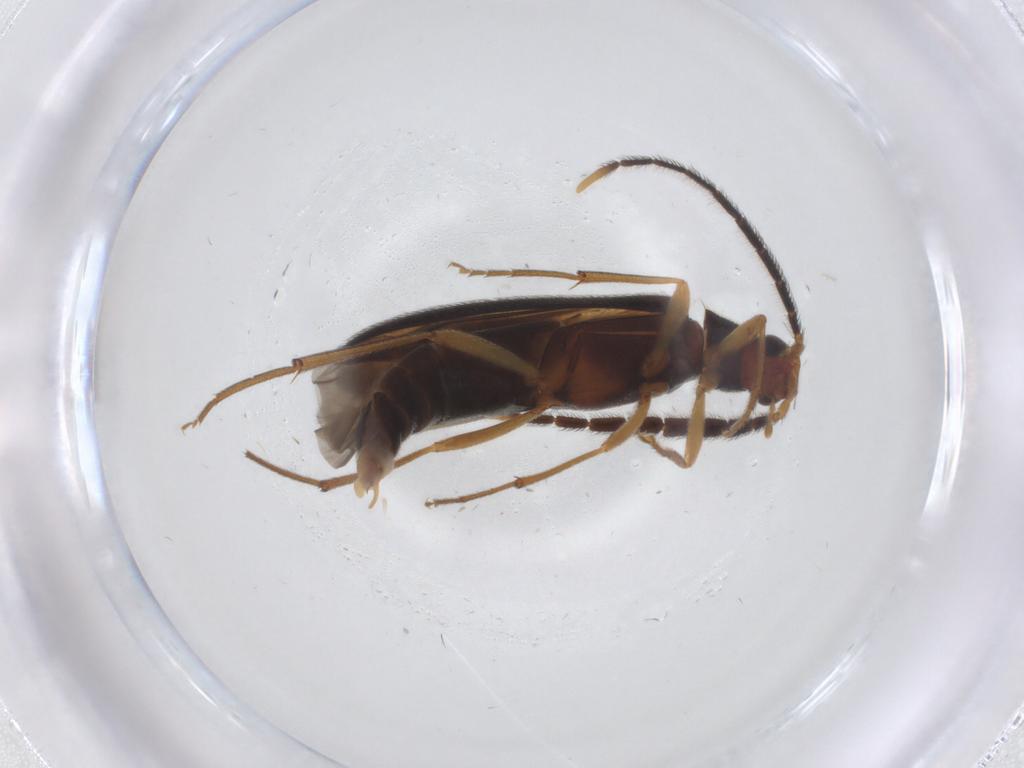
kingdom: Animalia
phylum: Arthropoda
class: Insecta
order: Coleoptera
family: Melandryidae
